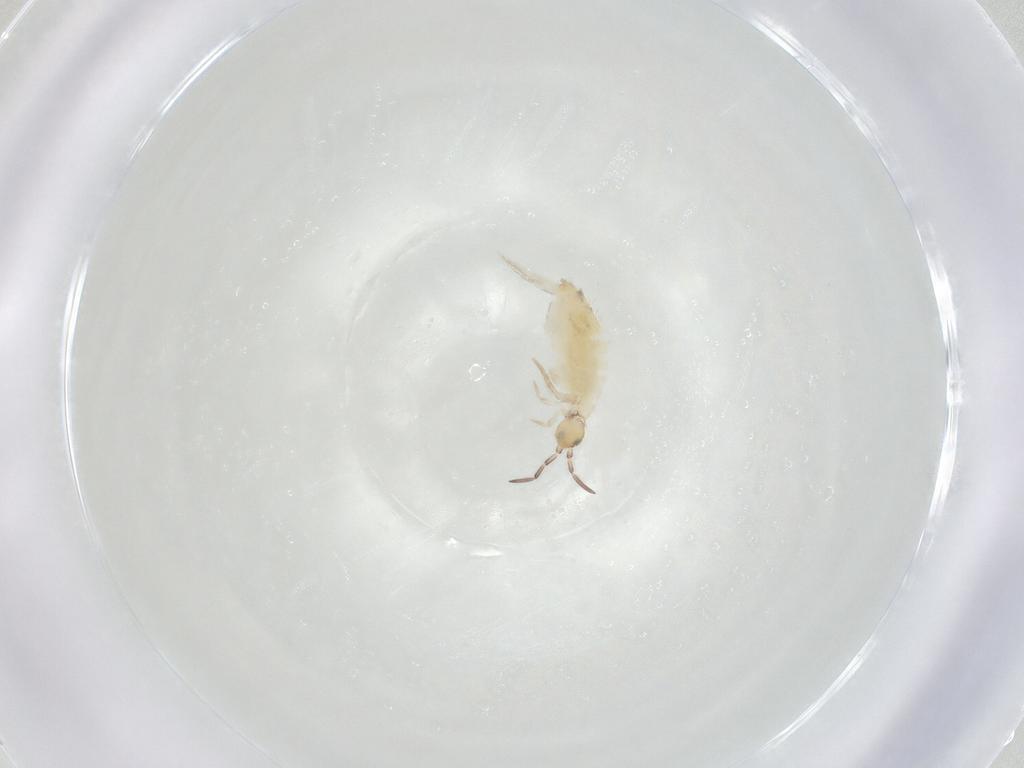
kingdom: Animalia
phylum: Arthropoda
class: Collembola
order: Entomobryomorpha
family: Entomobryidae
